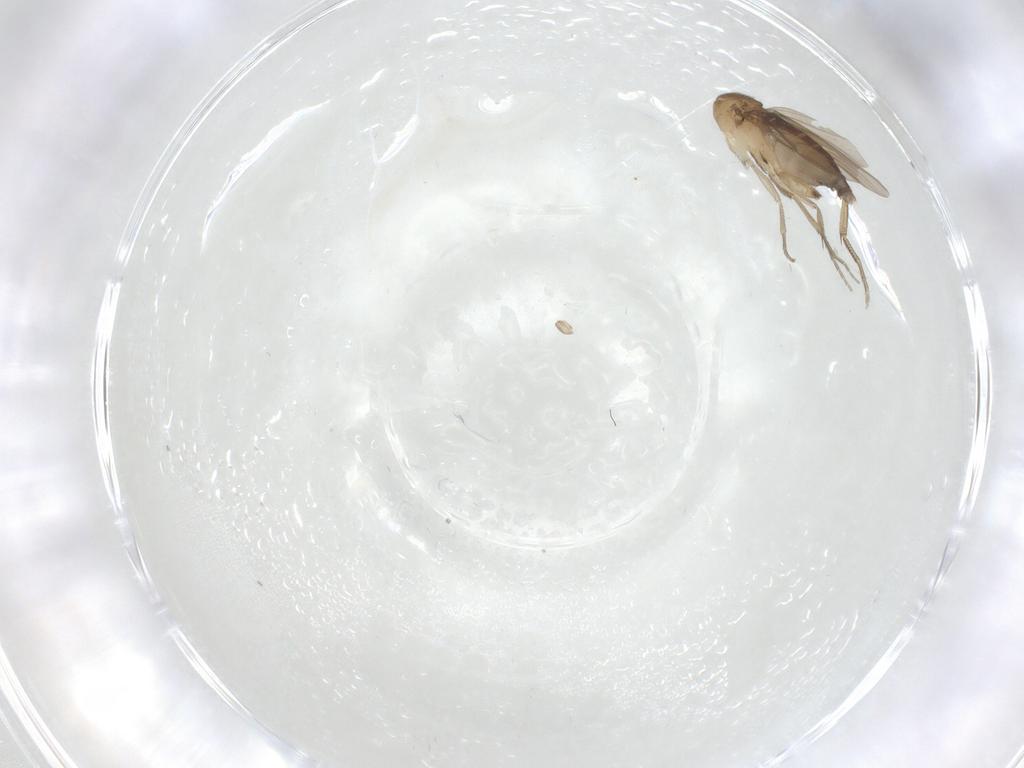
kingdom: Animalia
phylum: Arthropoda
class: Insecta
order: Diptera
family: Phoridae
